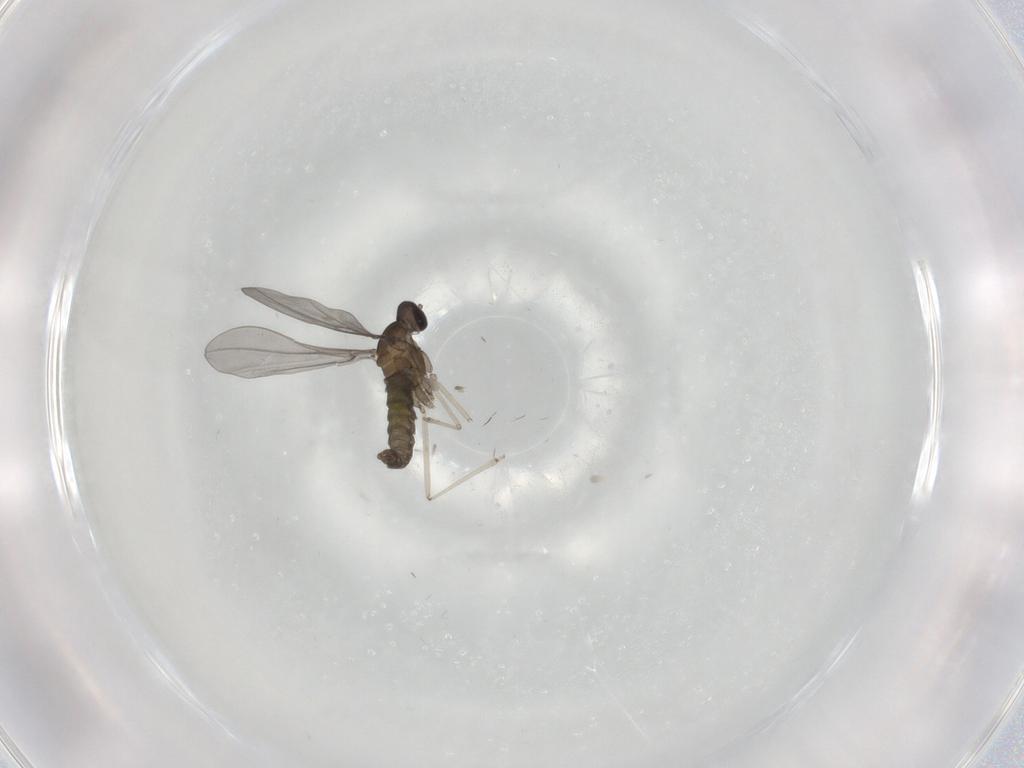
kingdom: Animalia
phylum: Arthropoda
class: Insecta
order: Diptera
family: Cecidomyiidae
